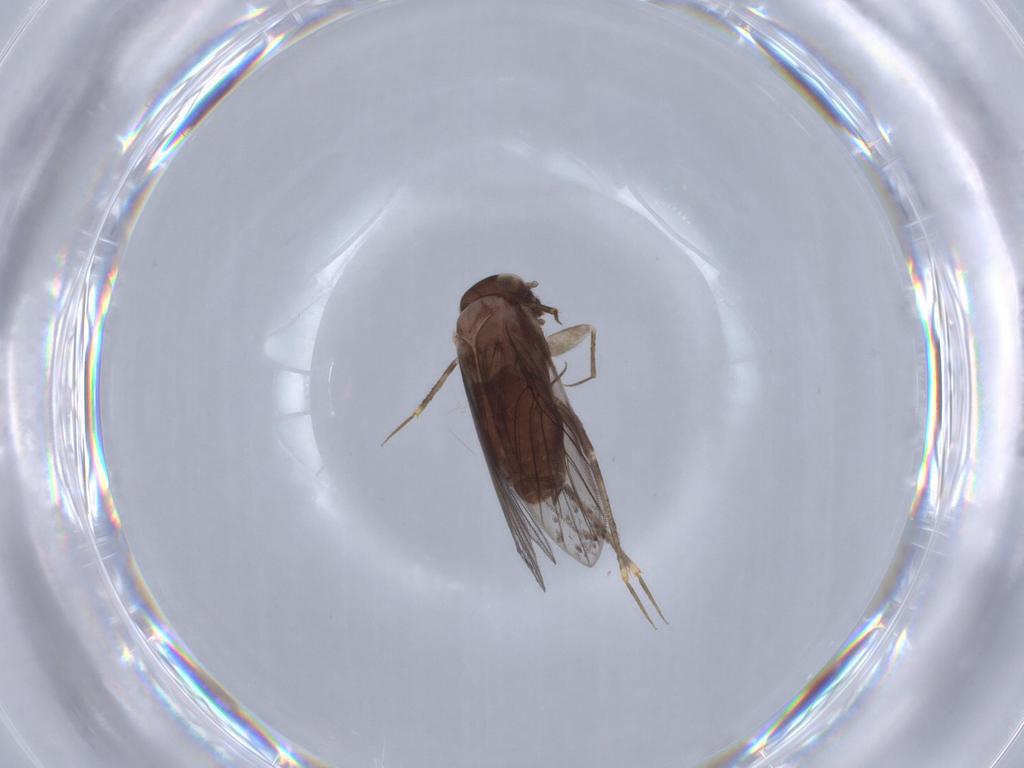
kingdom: Animalia
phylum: Arthropoda
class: Insecta
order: Psocodea
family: Lepidopsocidae
